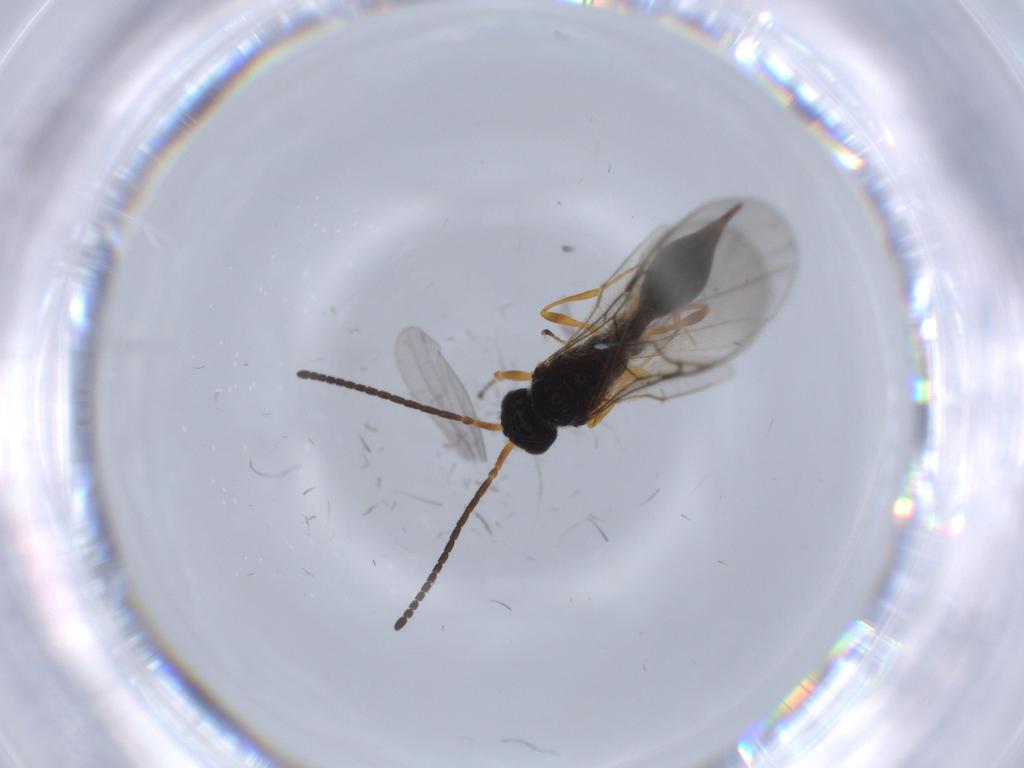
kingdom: Animalia
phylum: Arthropoda
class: Insecta
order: Hymenoptera
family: Diapriidae
